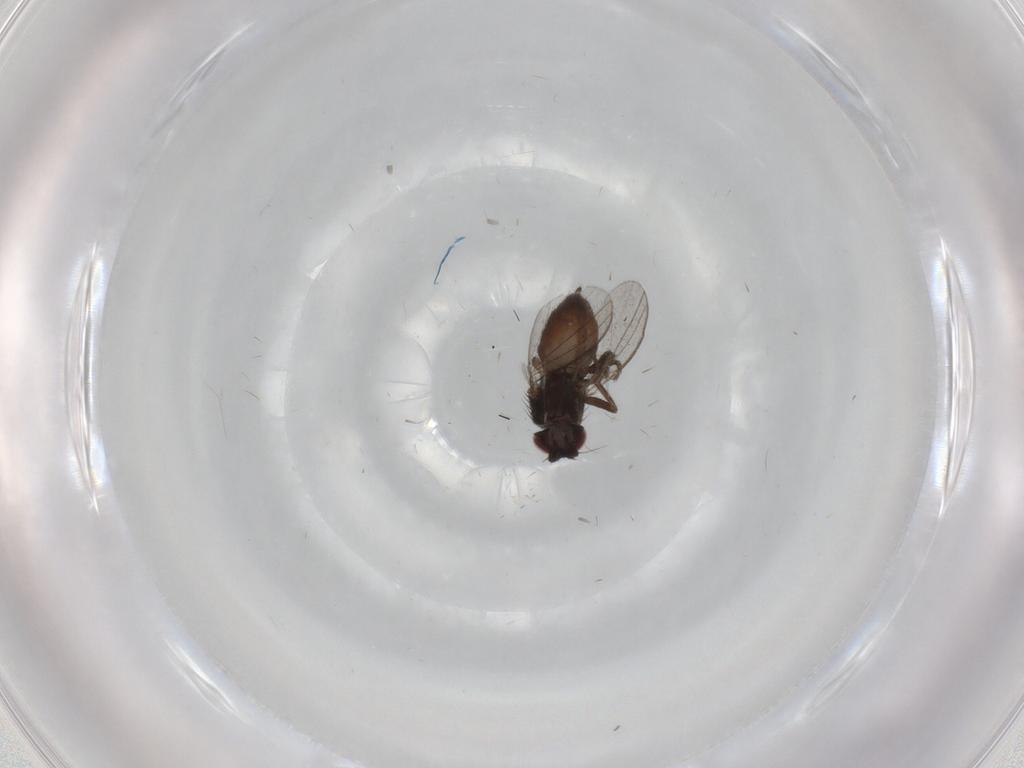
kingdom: Animalia
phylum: Arthropoda
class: Insecta
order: Diptera
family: Milichiidae
